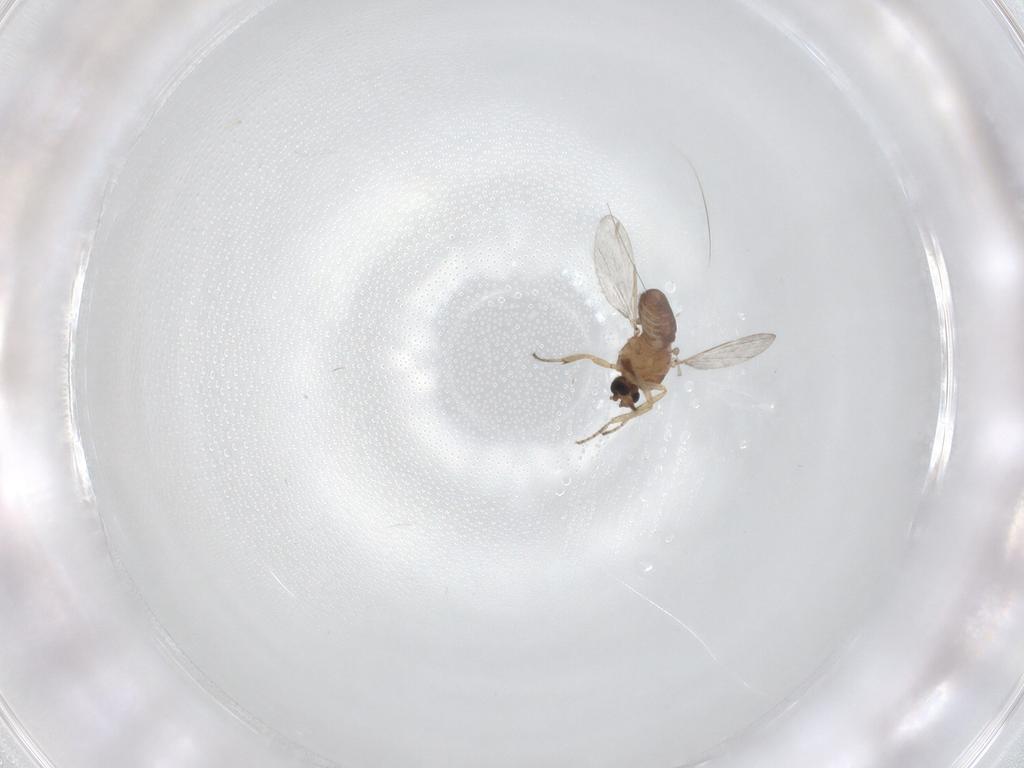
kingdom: Animalia
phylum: Arthropoda
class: Insecta
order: Diptera
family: Ceratopogonidae
